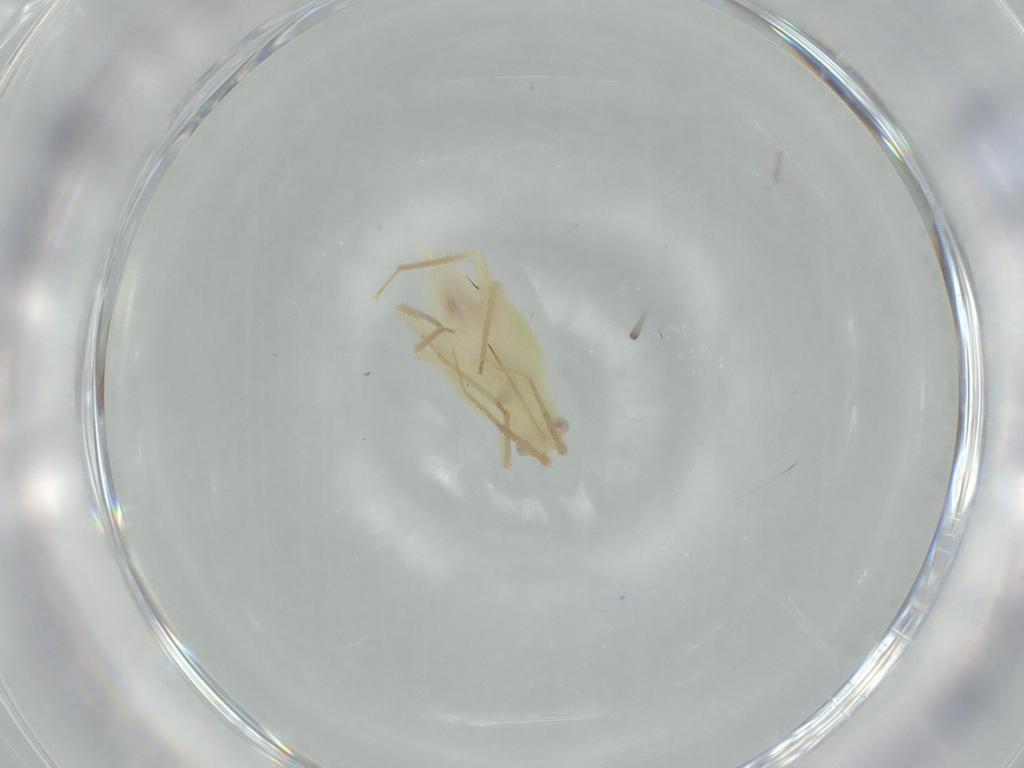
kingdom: Animalia
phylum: Arthropoda
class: Insecta
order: Hemiptera
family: Miridae
